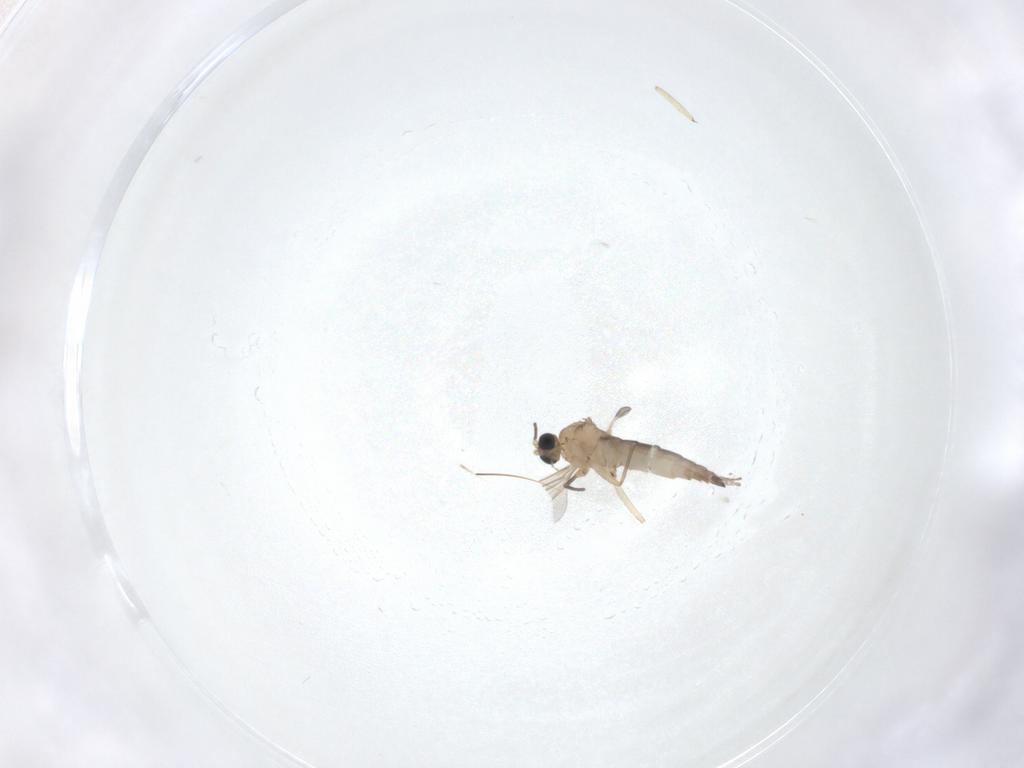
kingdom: Animalia
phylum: Arthropoda
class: Insecta
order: Diptera
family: Sciaridae
